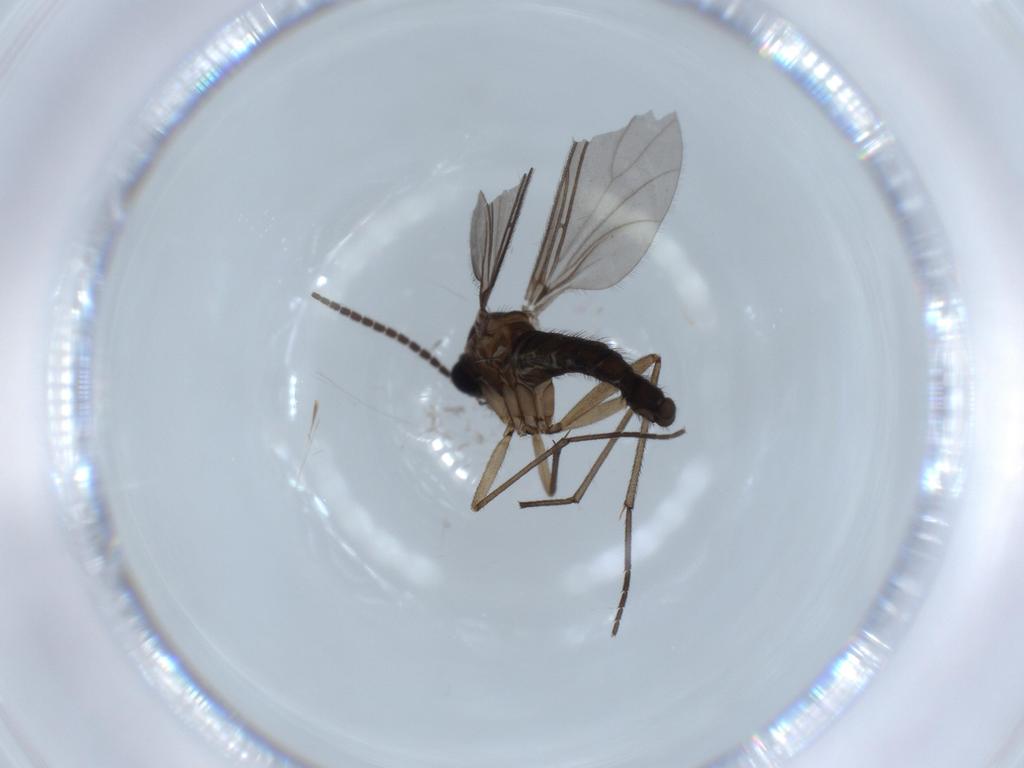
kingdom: Animalia
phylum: Arthropoda
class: Insecta
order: Diptera
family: Sciaridae
